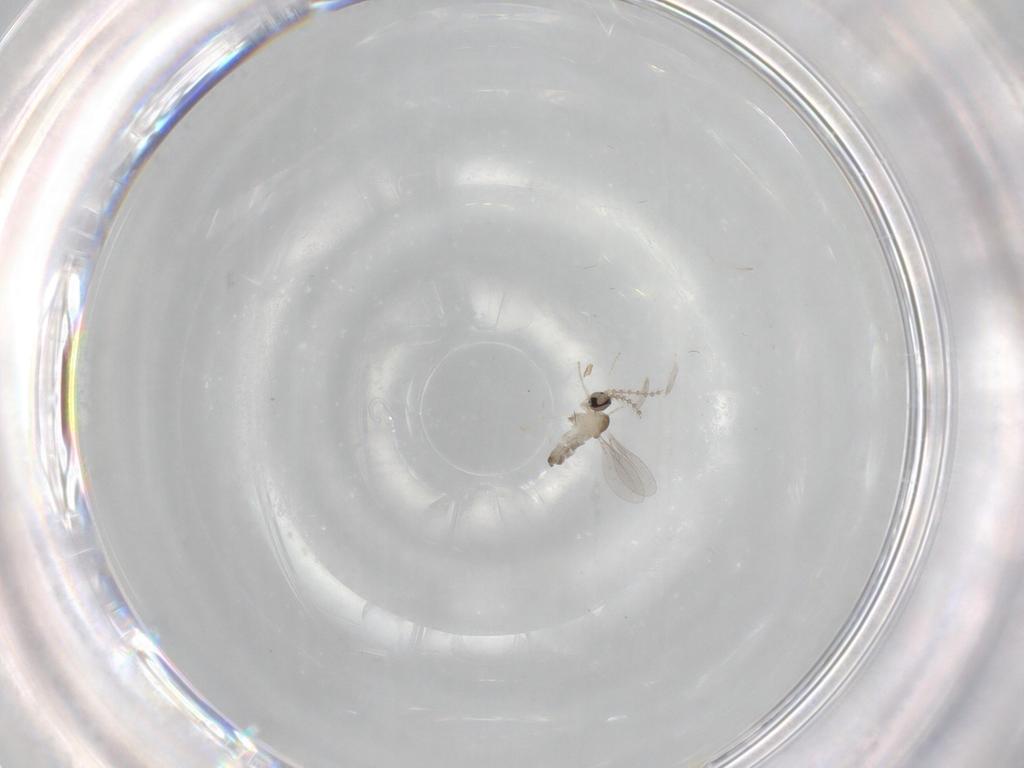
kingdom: Animalia
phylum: Arthropoda
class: Insecta
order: Diptera
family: Cecidomyiidae
